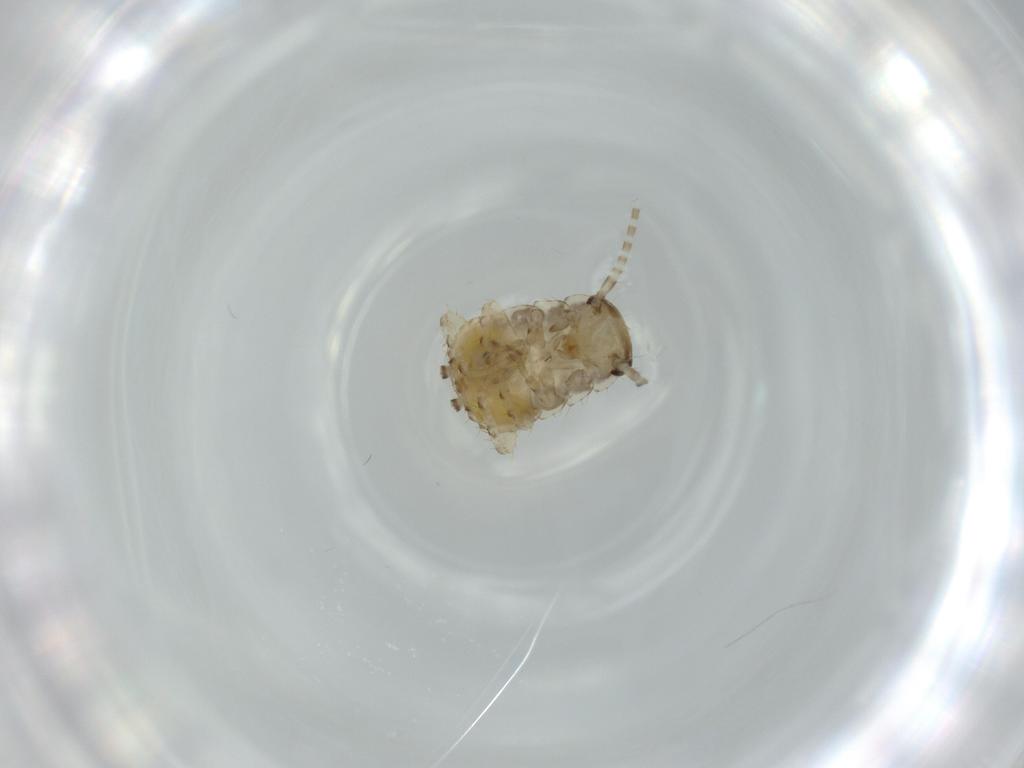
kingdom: Animalia
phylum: Arthropoda
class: Insecta
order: Blattodea
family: Ectobiidae
